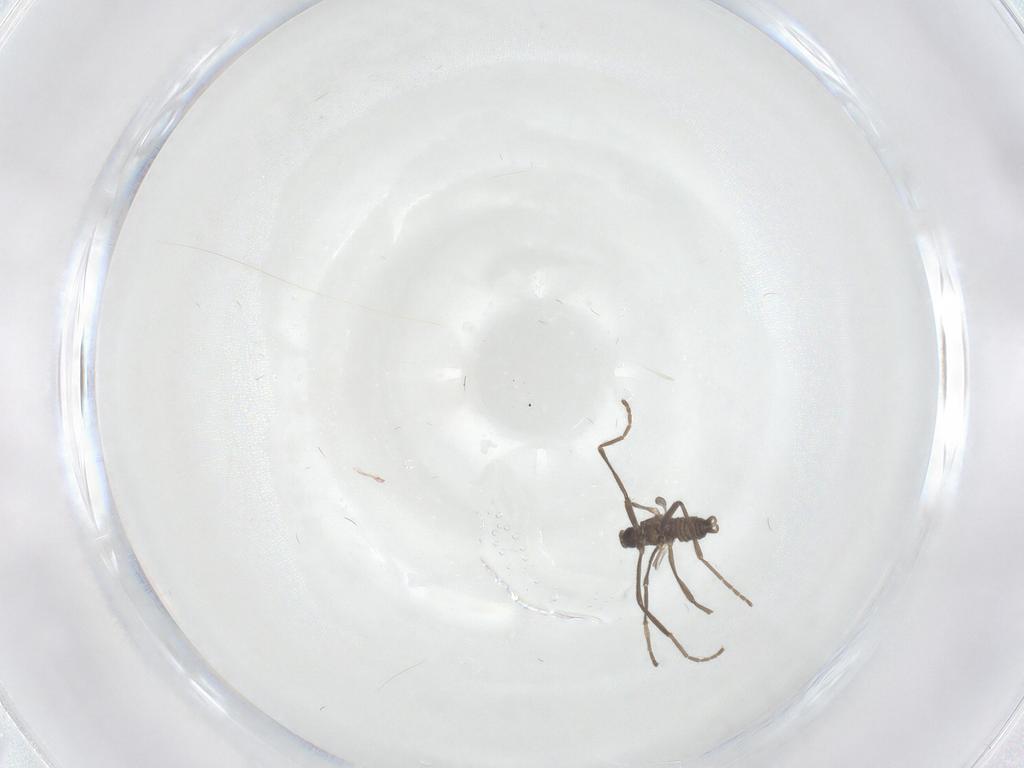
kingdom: Animalia
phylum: Arthropoda
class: Insecta
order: Diptera
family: Cecidomyiidae
